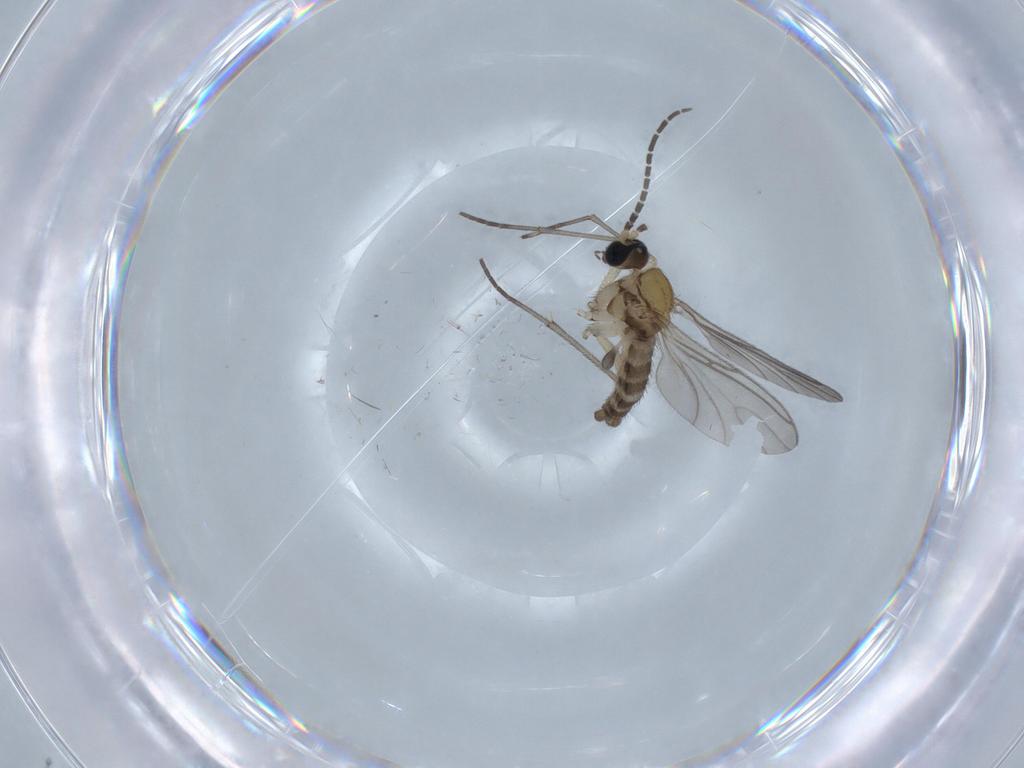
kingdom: Animalia
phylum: Arthropoda
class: Insecta
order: Diptera
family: Sciaridae
